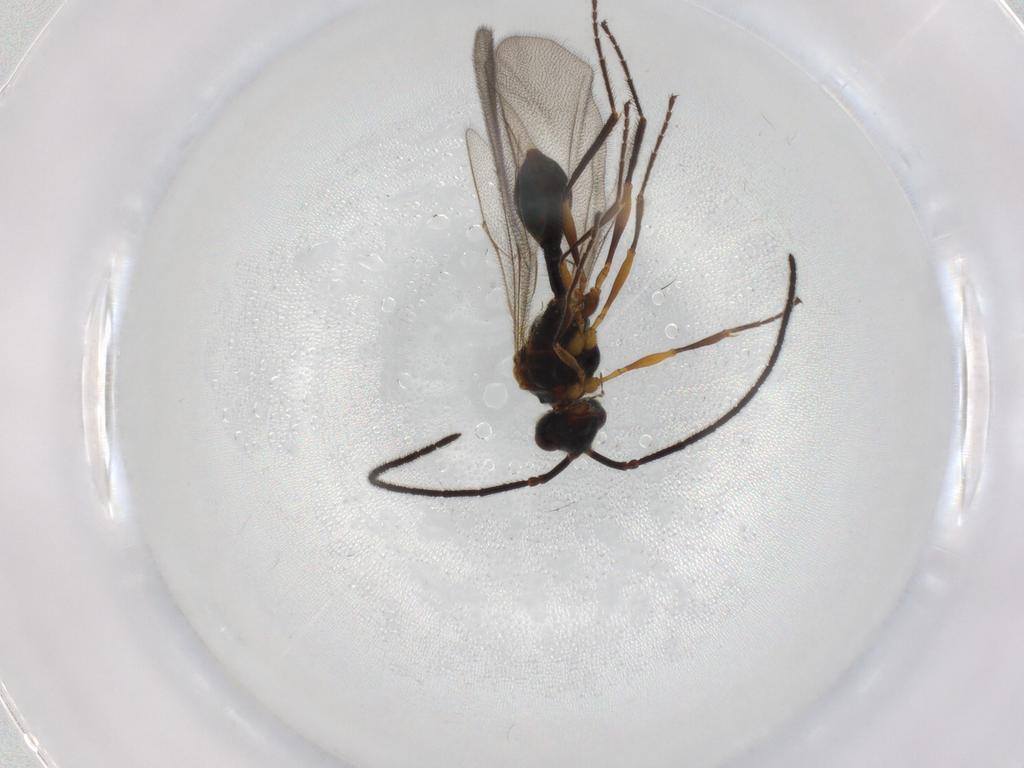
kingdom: Animalia
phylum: Arthropoda
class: Insecta
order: Hymenoptera
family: Diapriidae
